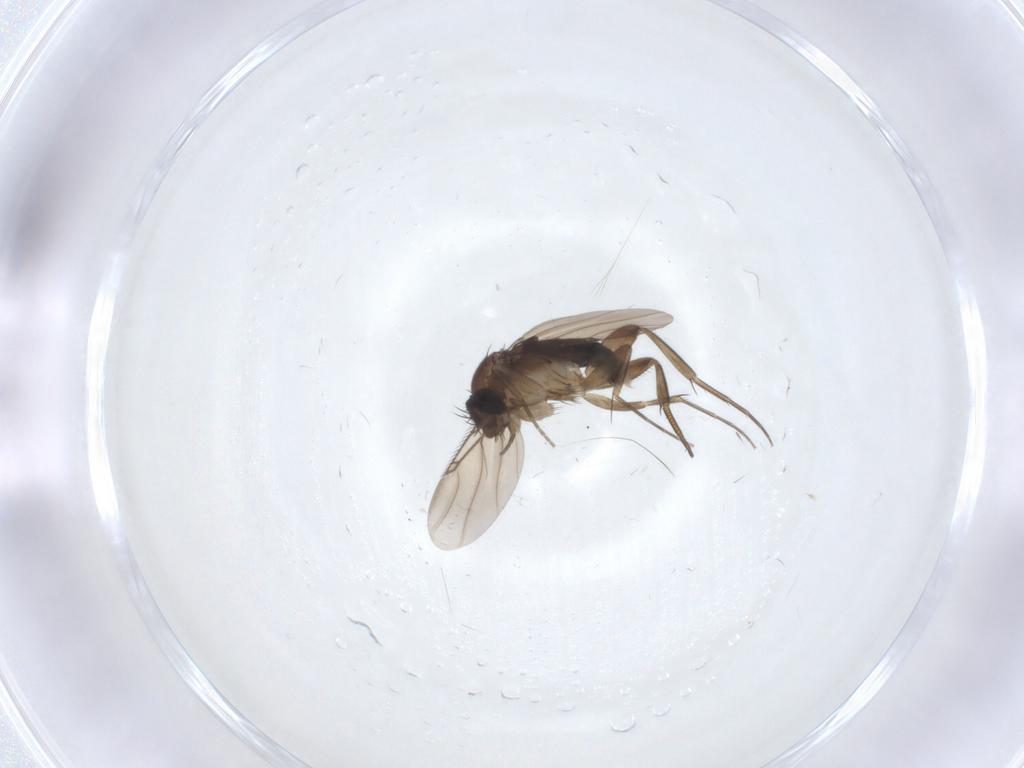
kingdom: Animalia
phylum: Arthropoda
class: Insecta
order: Diptera
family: Phoridae
